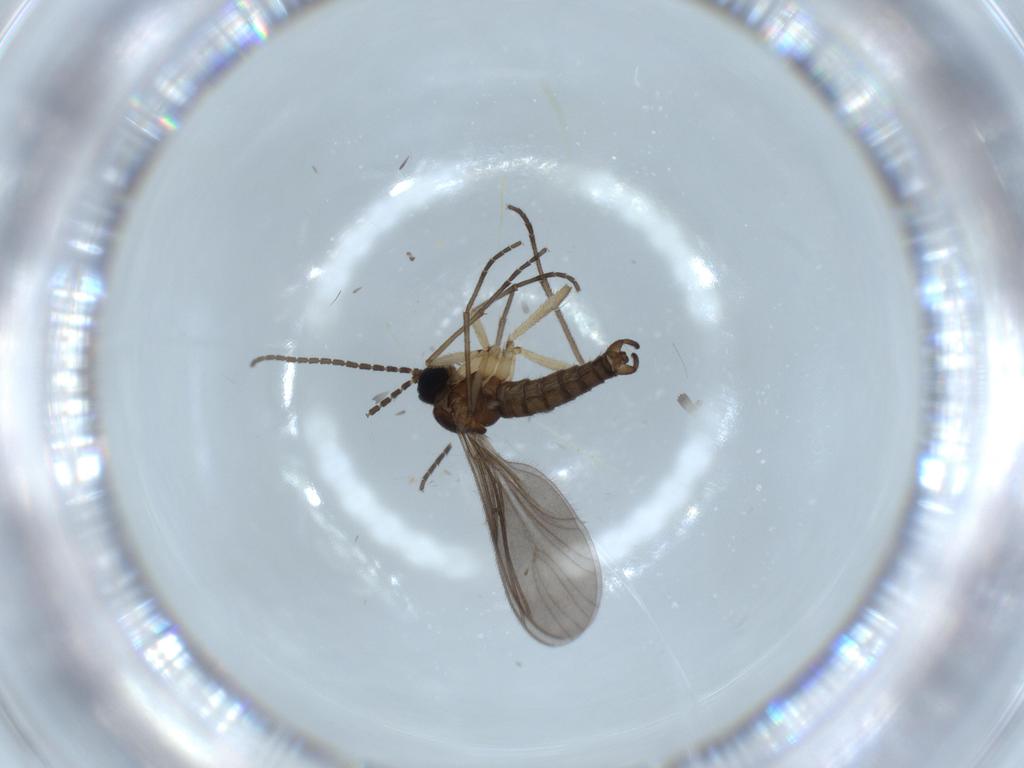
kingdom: Animalia
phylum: Arthropoda
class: Insecta
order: Diptera
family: Sciaridae
